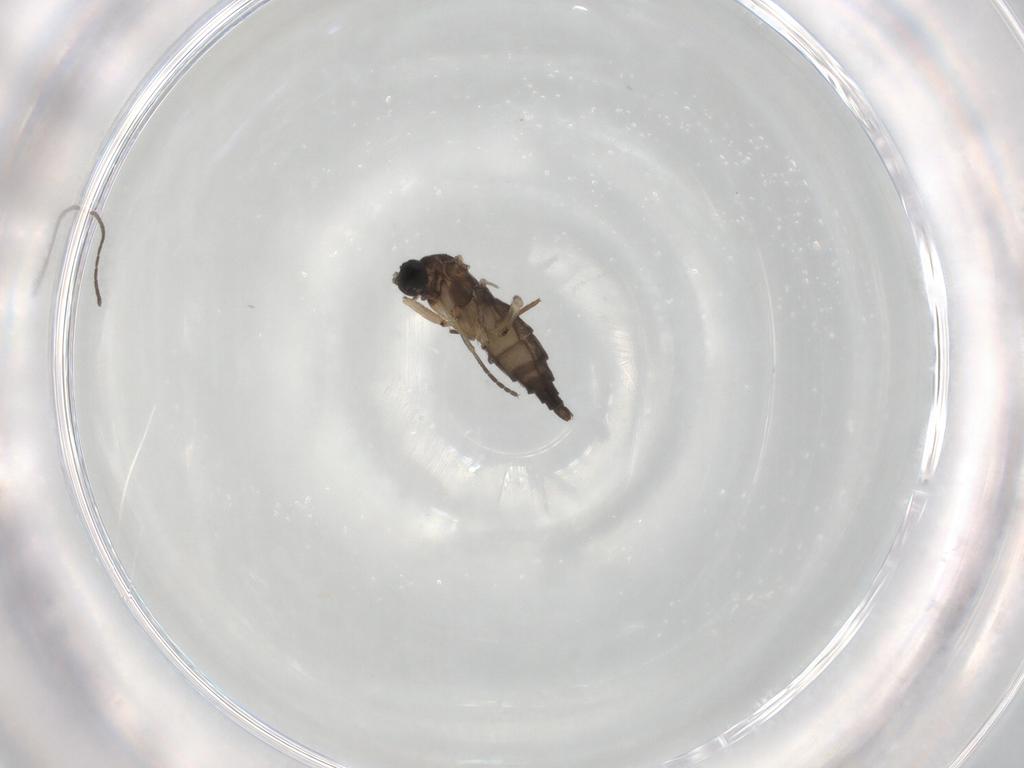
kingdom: Animalia
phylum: Arthropoda
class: Insecta
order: Diptera
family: Sciaridae
